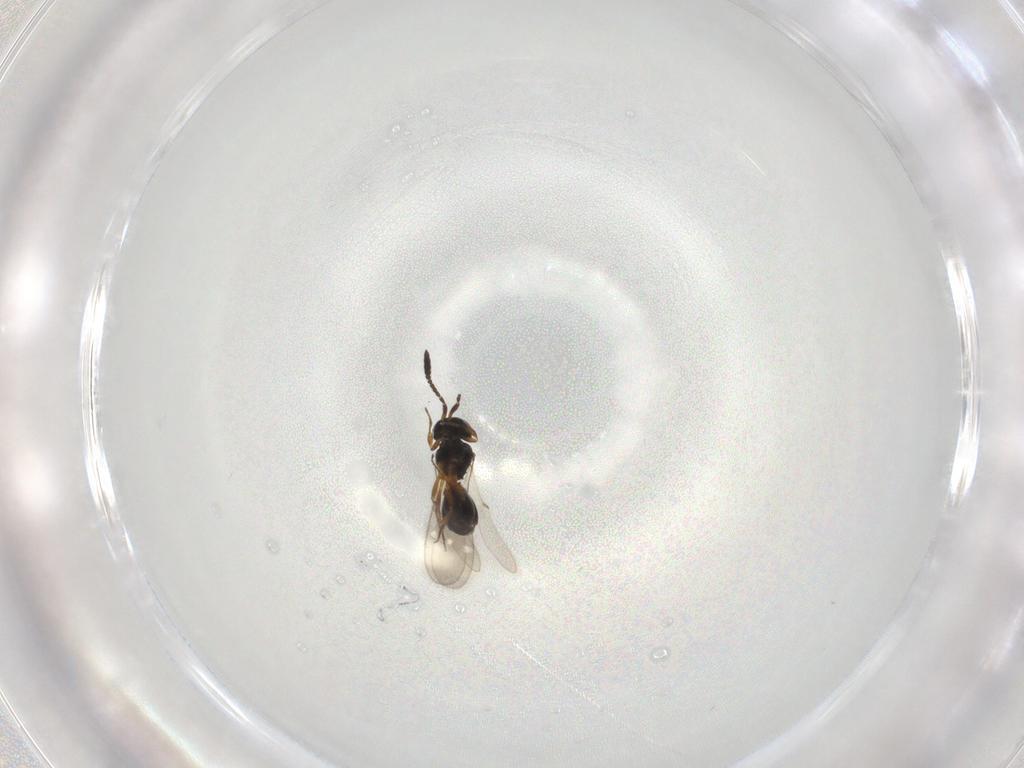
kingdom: Animalia
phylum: Arthropoda
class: Insecta
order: Hymenoptera
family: Scelionidae
